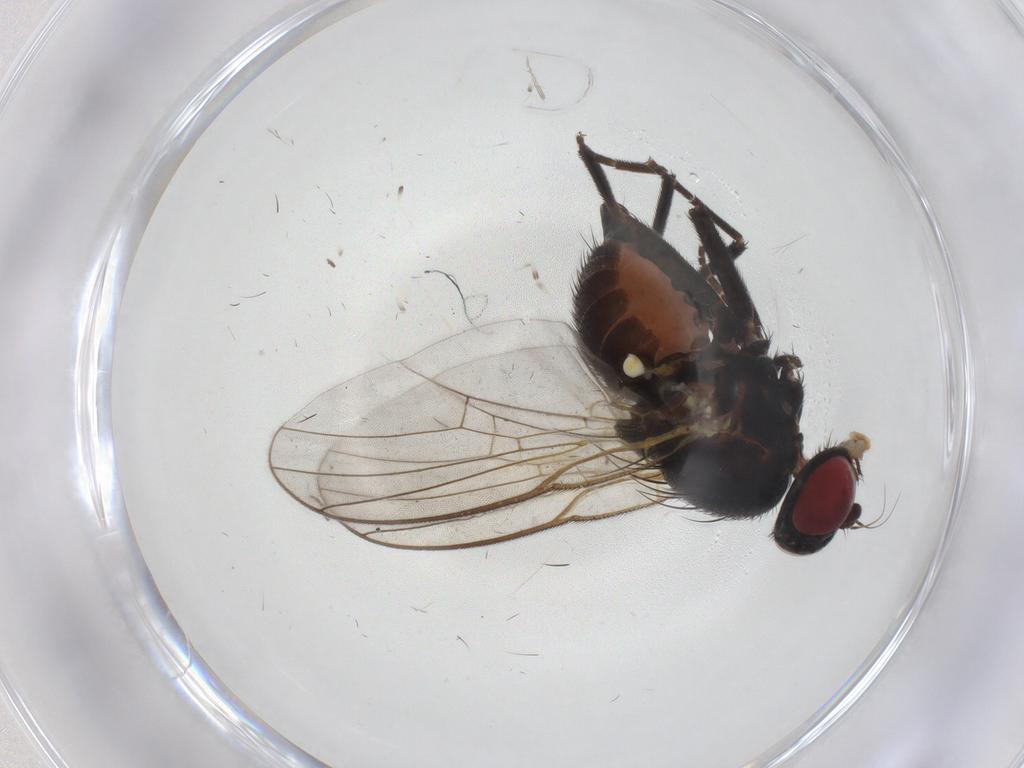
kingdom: Animalia
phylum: Arthropoda
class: Insecta
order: Diptera
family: Agromyzidae
